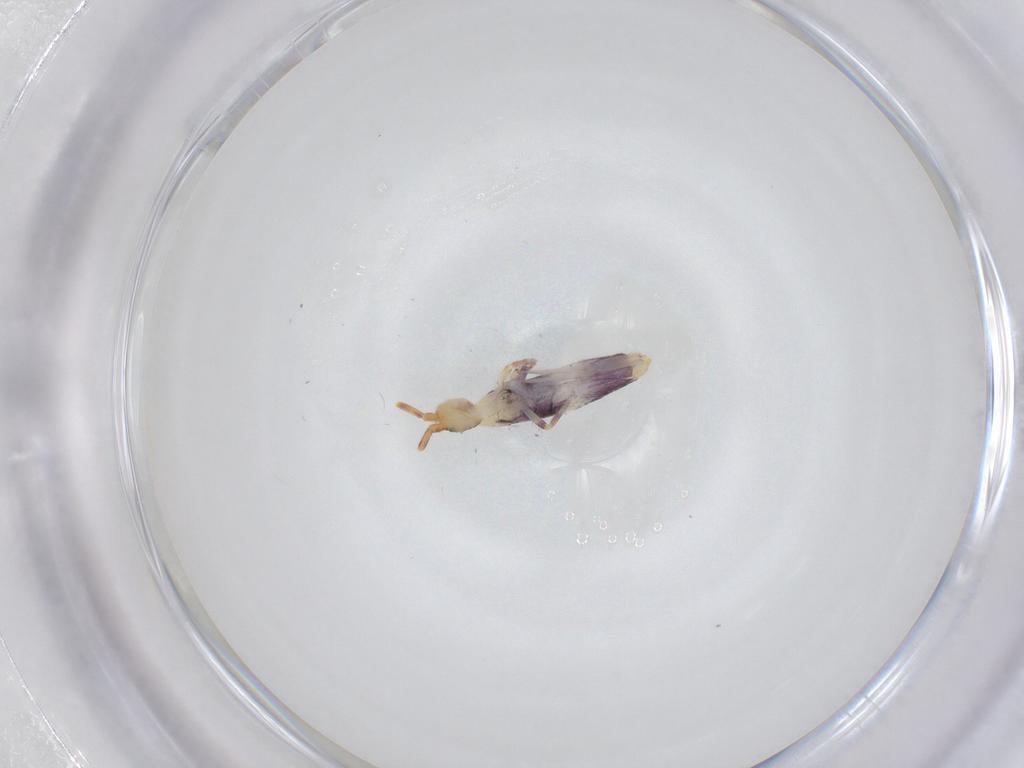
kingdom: Animalia
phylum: Arthropoda
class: Collembola
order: Entomobryomorpha
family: Entomobryidae
